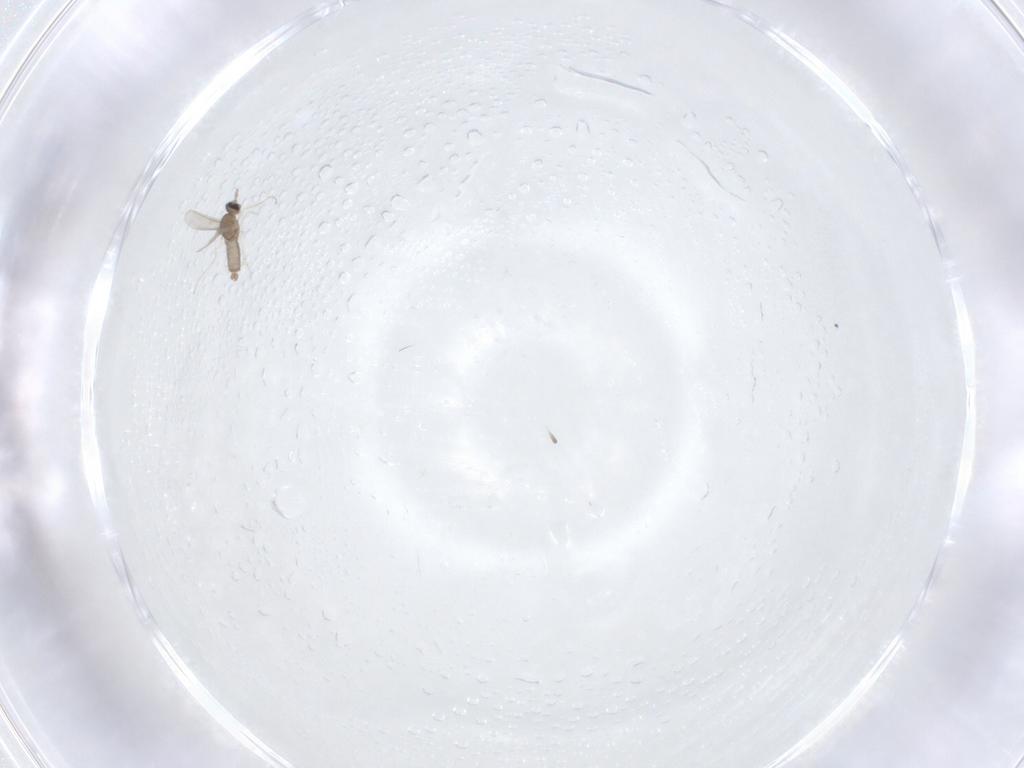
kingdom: Animalia
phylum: Arthropoda
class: Insecta
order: Diptera
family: Cecidomyiidae
